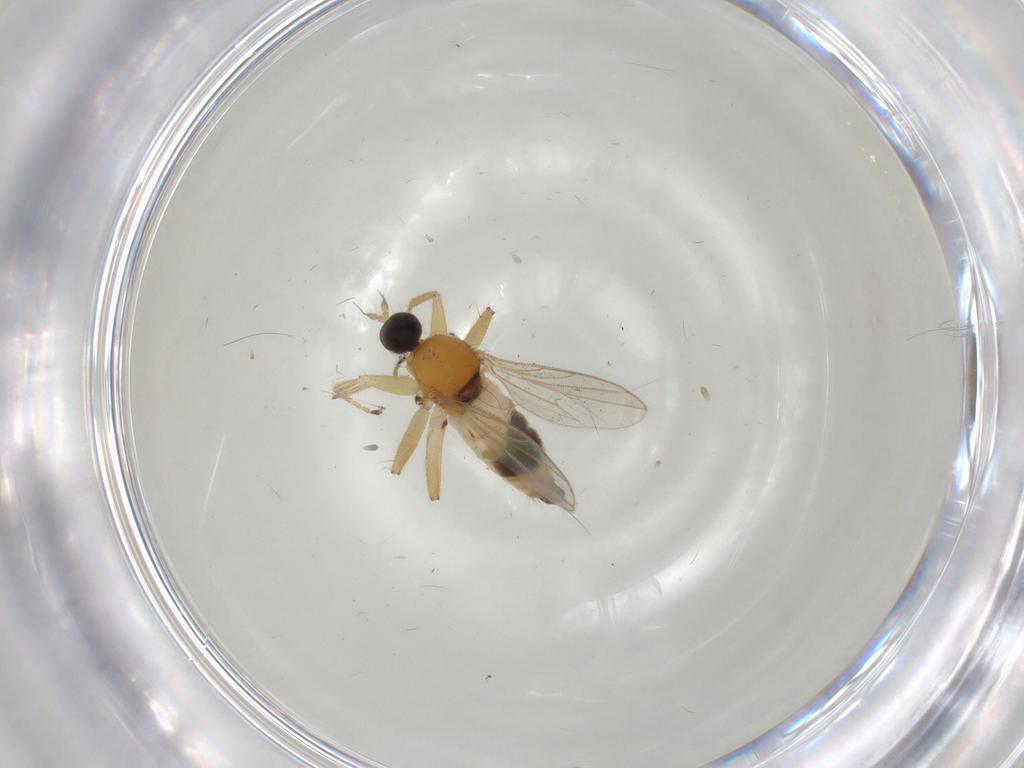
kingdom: Animalia
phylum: Arthropoda
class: Insecta
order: Diptera
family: Hybotidae
